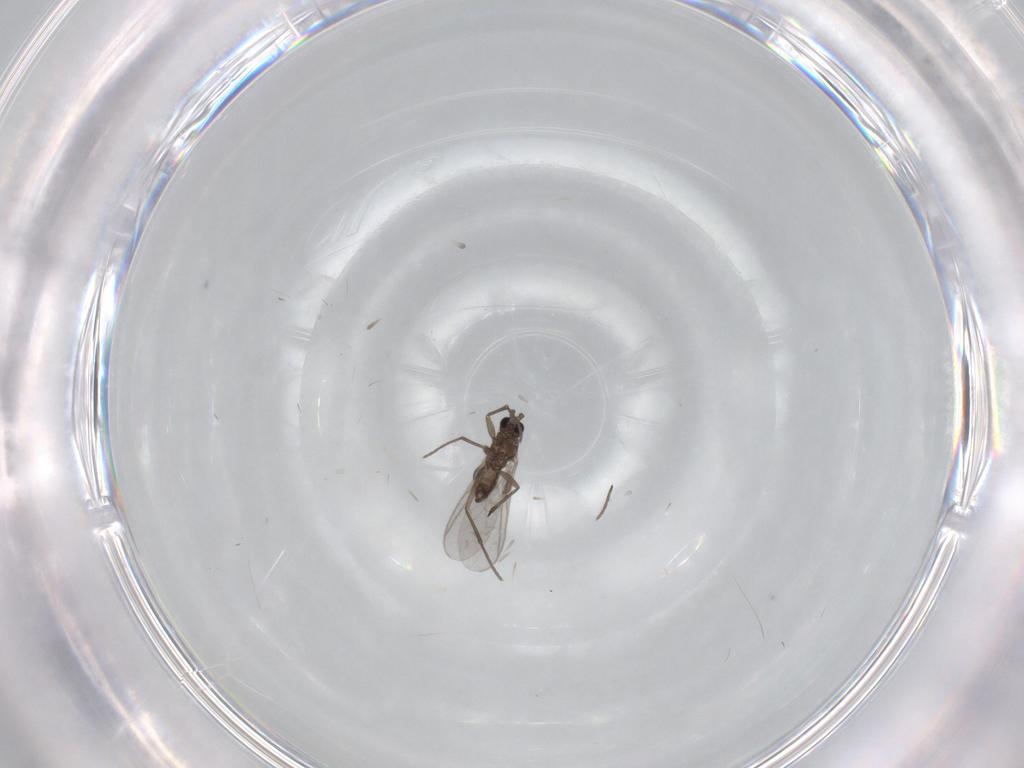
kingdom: Animalia
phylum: Arthropoda
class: Insecta
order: Diptera
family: Sciaridae
